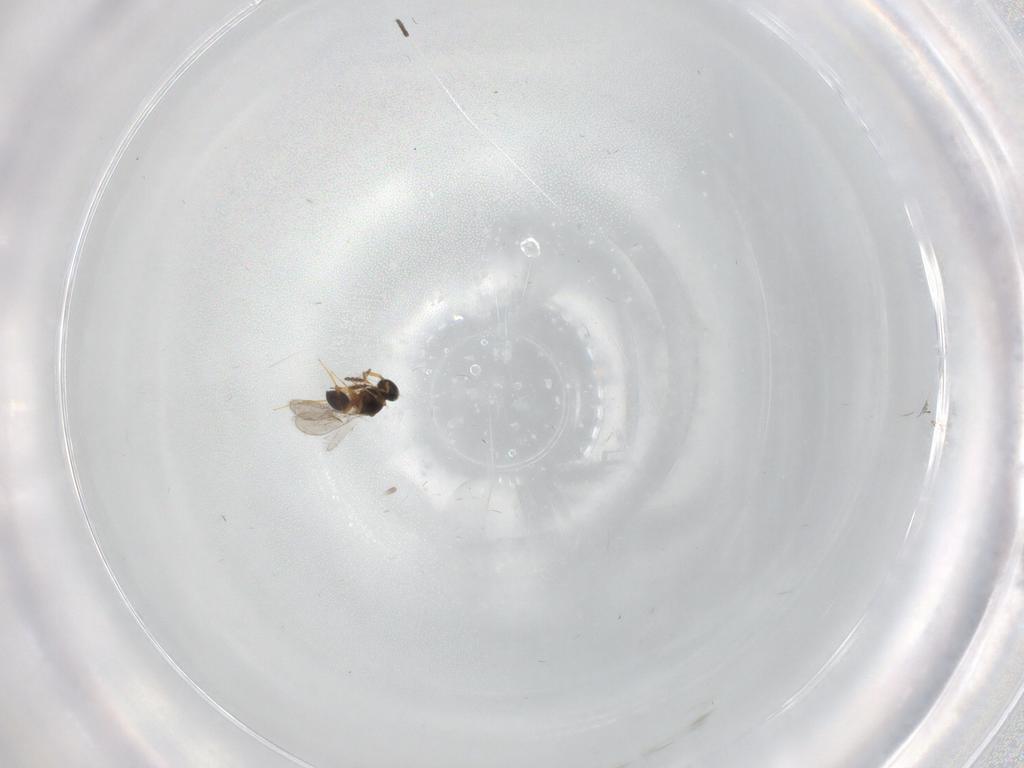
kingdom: Animalia
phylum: Arthropoda
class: Insecta
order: Hymenoptera
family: Platygastridae
